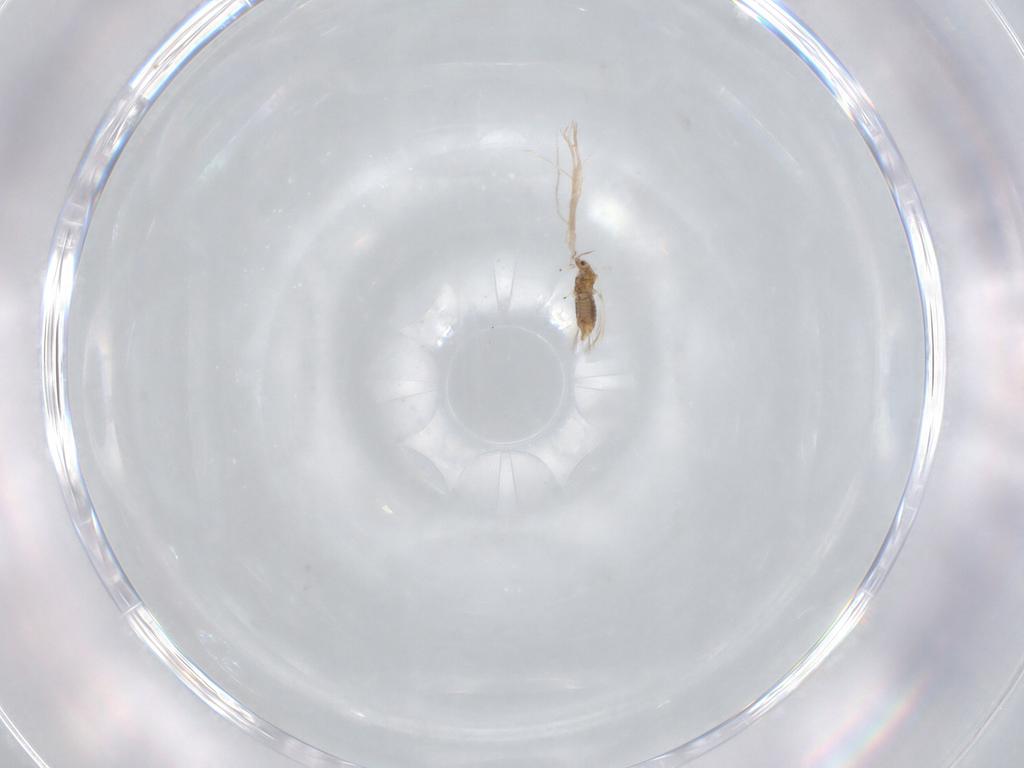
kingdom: Animalia
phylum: Arthropoda
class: Insecta
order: Thysanoptera
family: Thripidae
